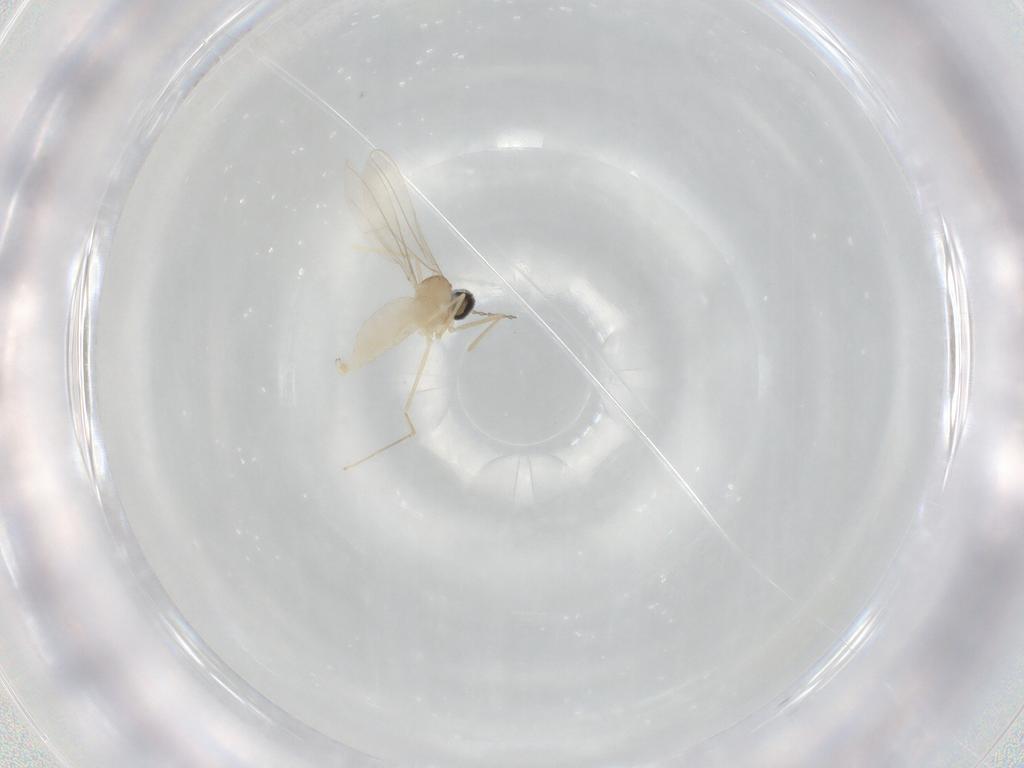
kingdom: Animalia
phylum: Arthropoda
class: Insecta
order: Diptera
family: Cecidomyiidae
